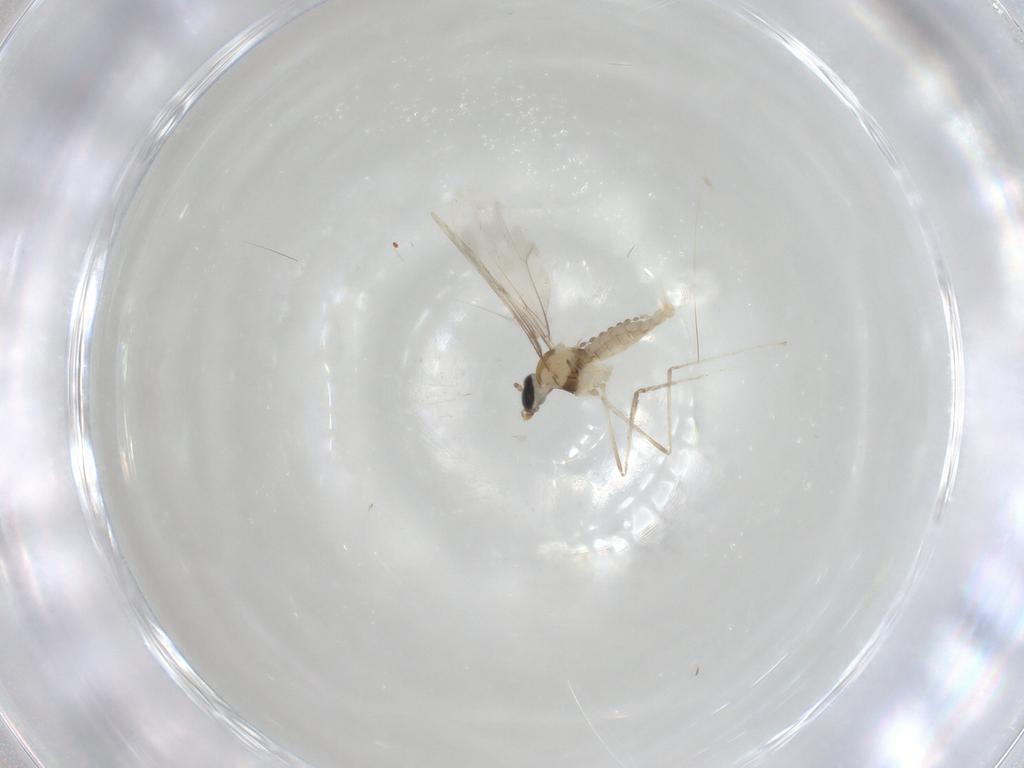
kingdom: Animalia
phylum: Arthropoda
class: Insecta
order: Diptera
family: Cecidomyiidae
